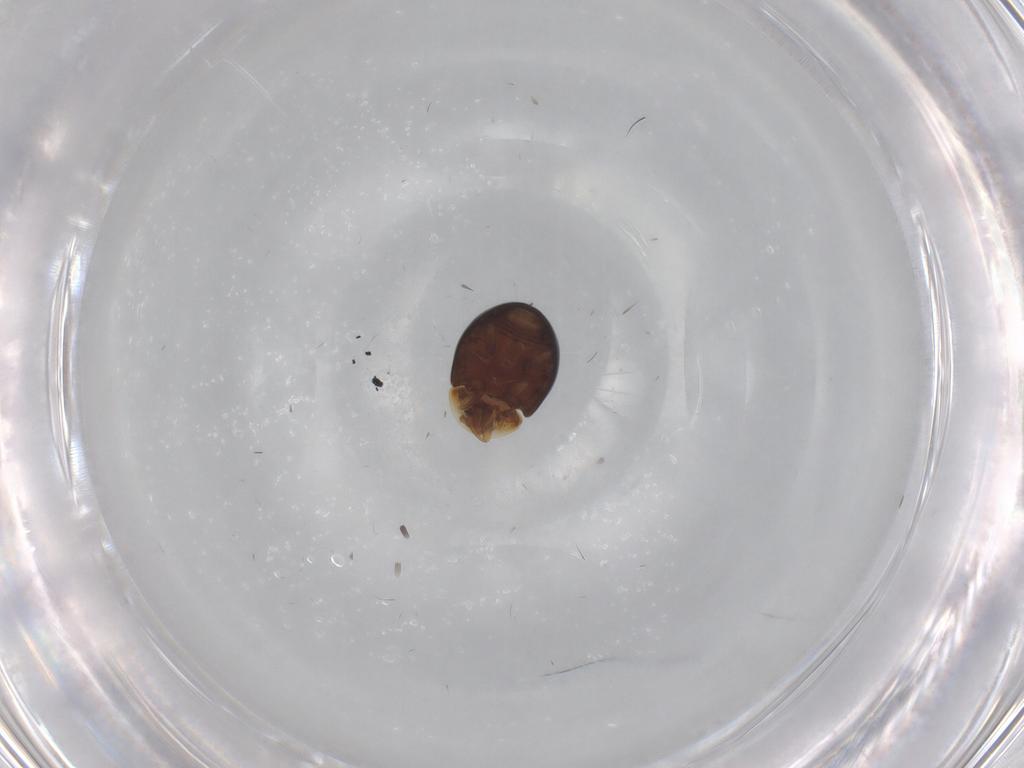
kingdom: Animalia
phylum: Arthropoda
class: Insecta
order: Coleoptera
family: Corylophidae
